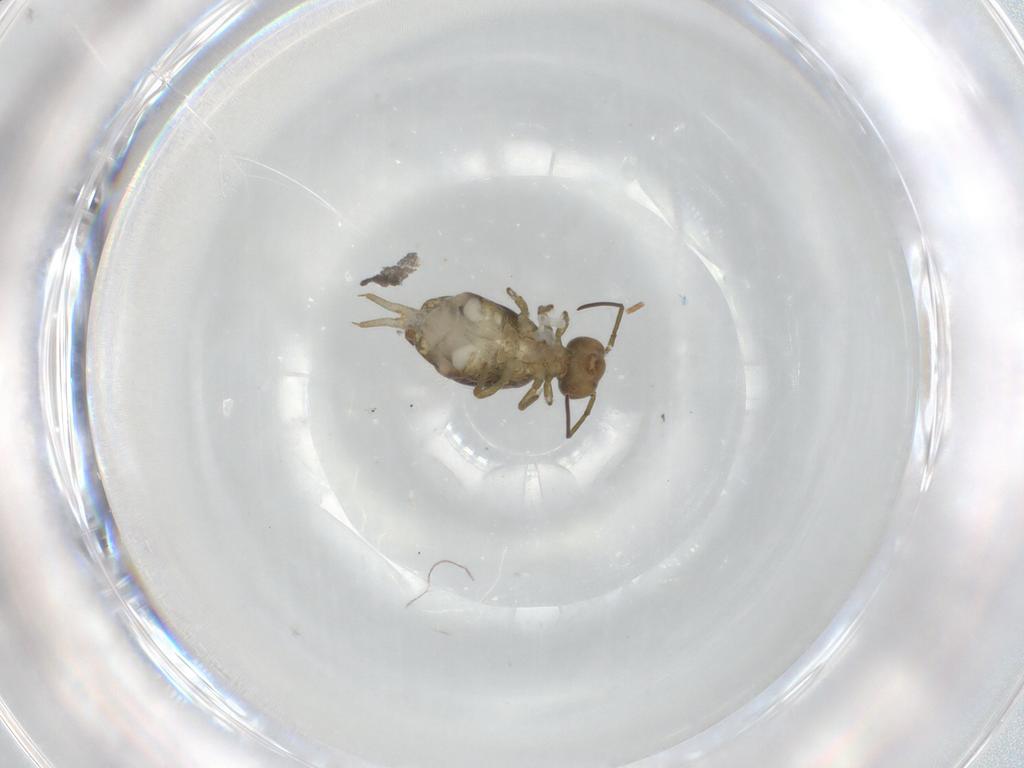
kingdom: Animalia
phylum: Arthropoda
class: Collembola
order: Symphypleona
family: Sminthuridae
